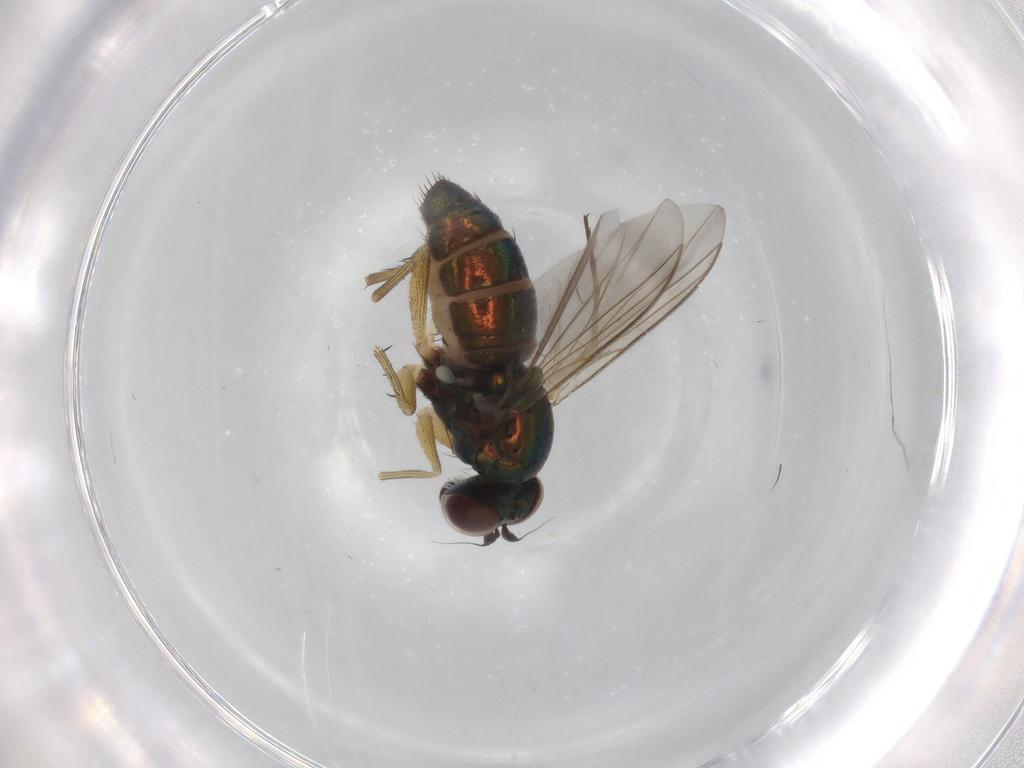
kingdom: Animalia
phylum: Arthropoda
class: Insecta
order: Diptera
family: Dolichopodidae
